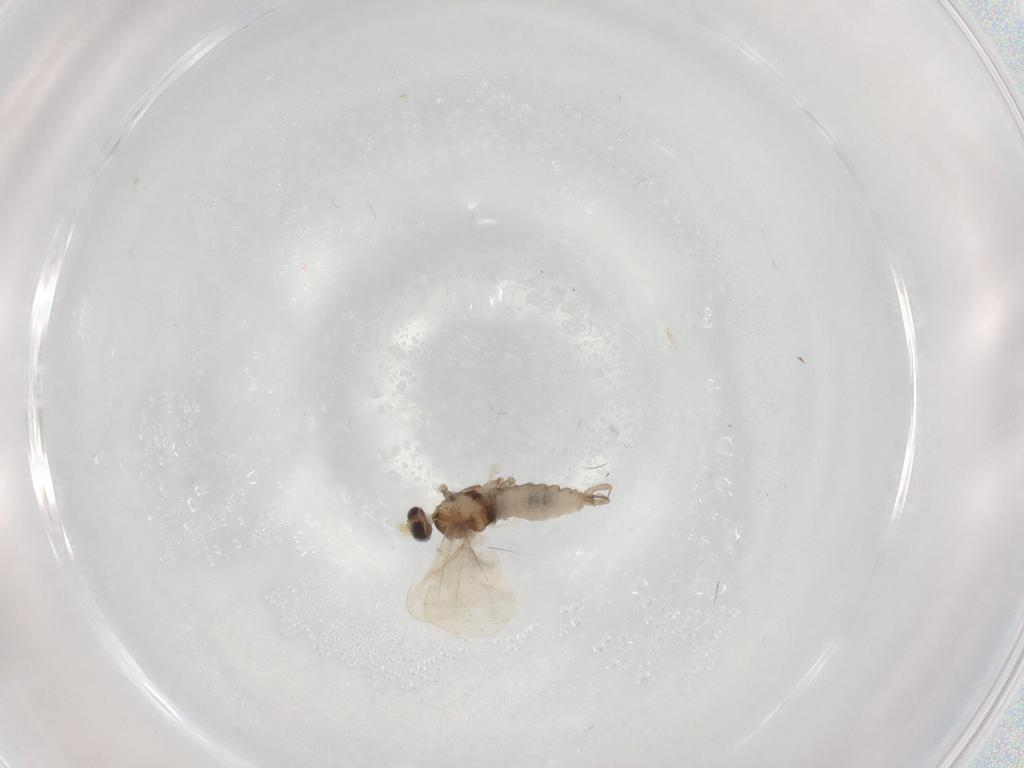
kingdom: Animalia
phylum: Arthropoda
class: Insecta
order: Diptera
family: Cecidomyiidae
